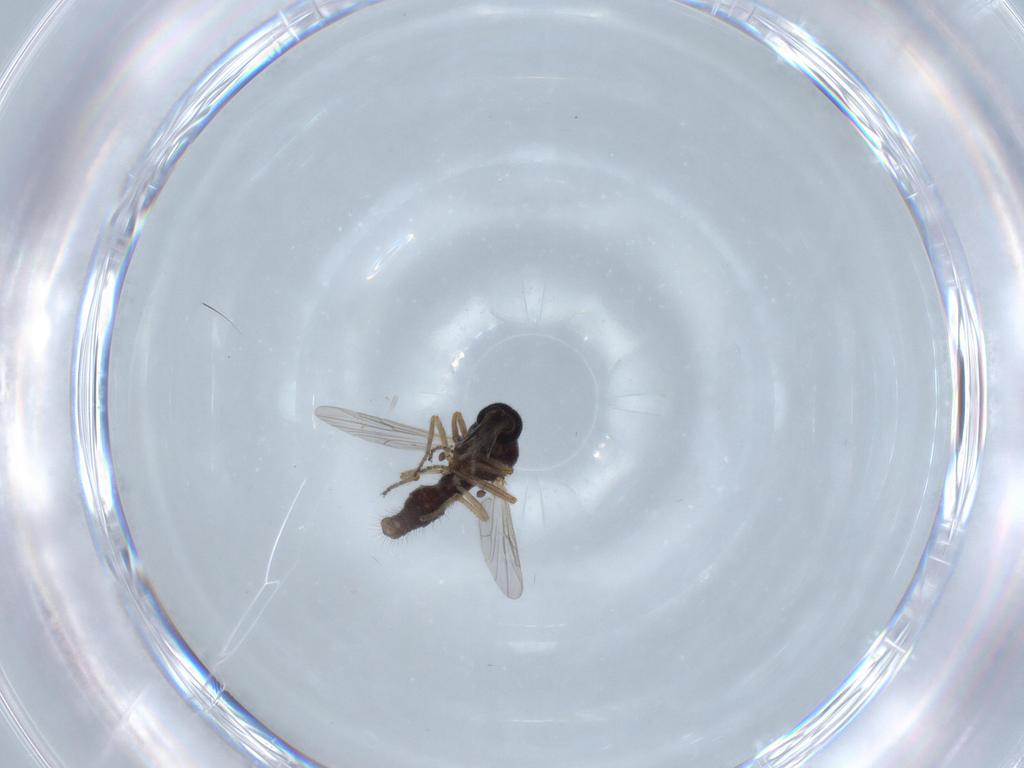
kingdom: Animalia
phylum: Arthropoda
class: Insecta
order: Diptera
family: Ceratopogonidae
